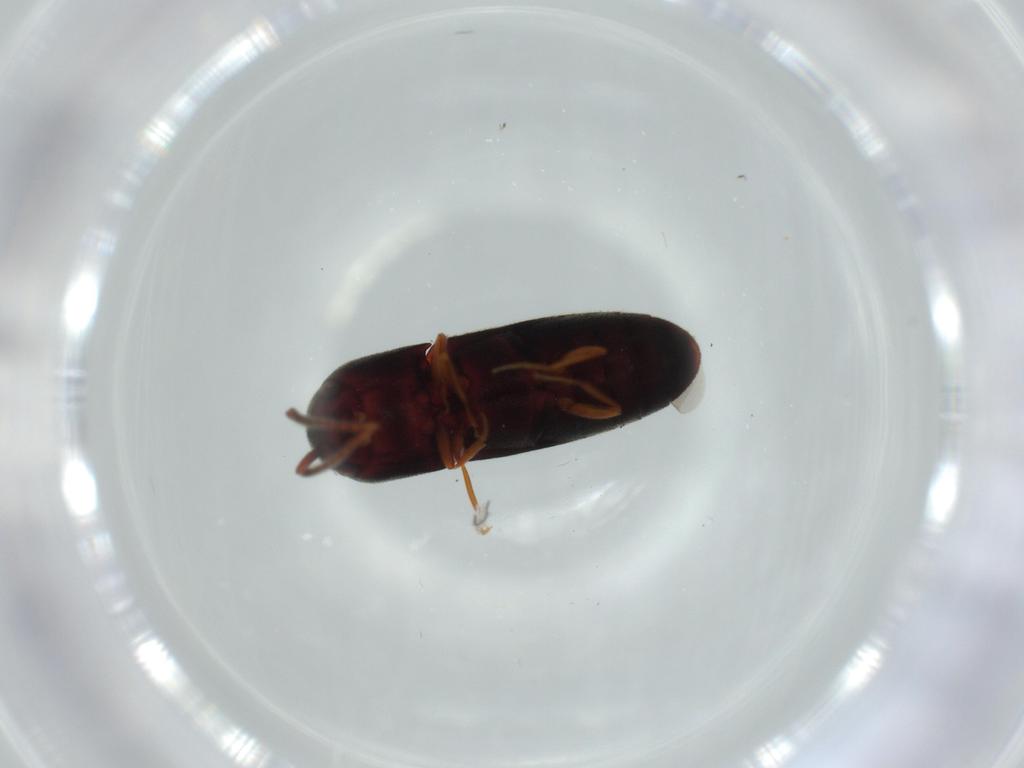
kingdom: Animalia
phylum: Arthropoda
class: Insecta
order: Coleoptera
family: Eucnemidae
